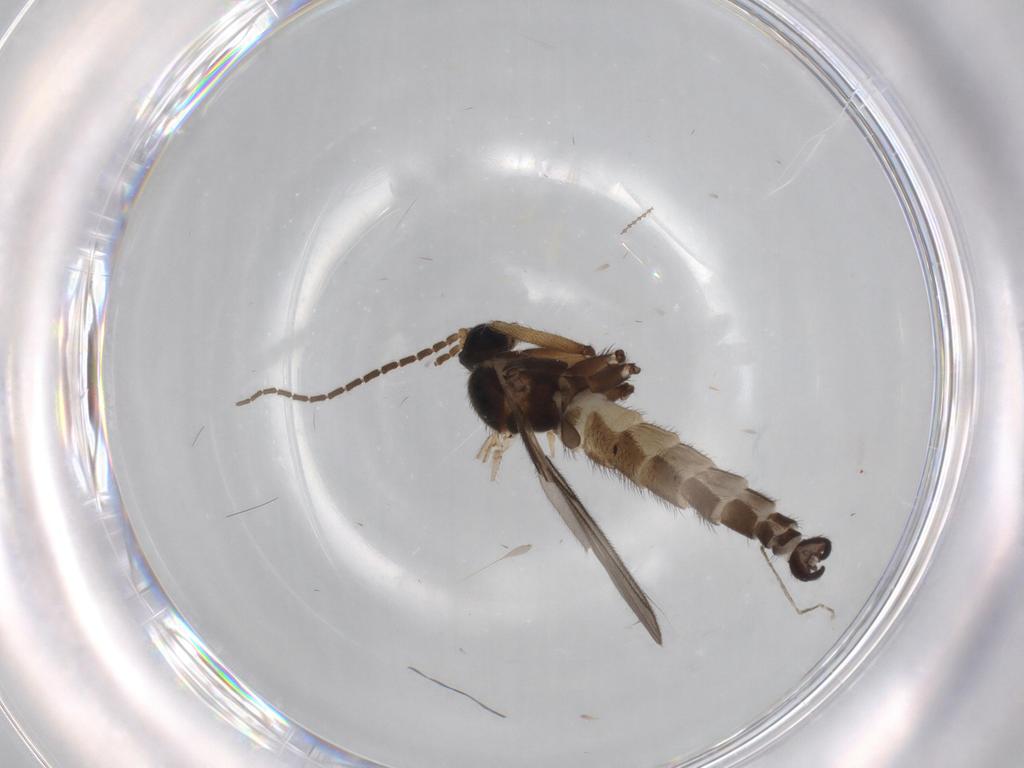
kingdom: Animalia
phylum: Arthropoda
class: Insecta
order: Diptera
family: Sciaridae
